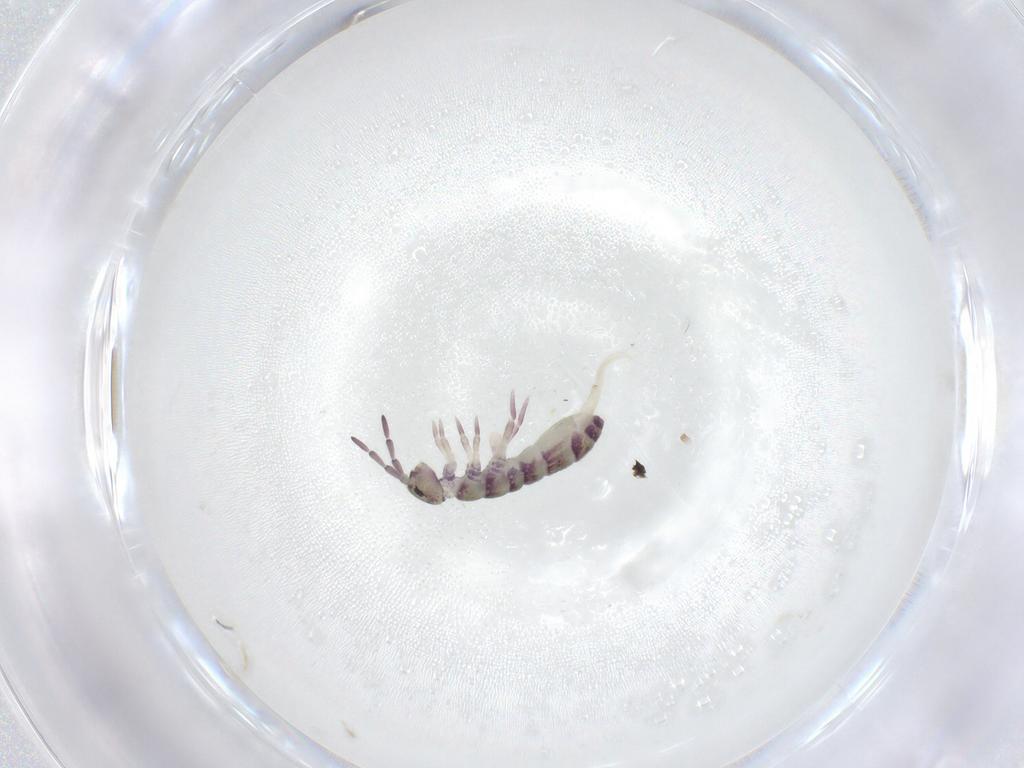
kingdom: Animalia
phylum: Arthropoda
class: Collembola
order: Entomobryomorpha
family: Entomobryidae
